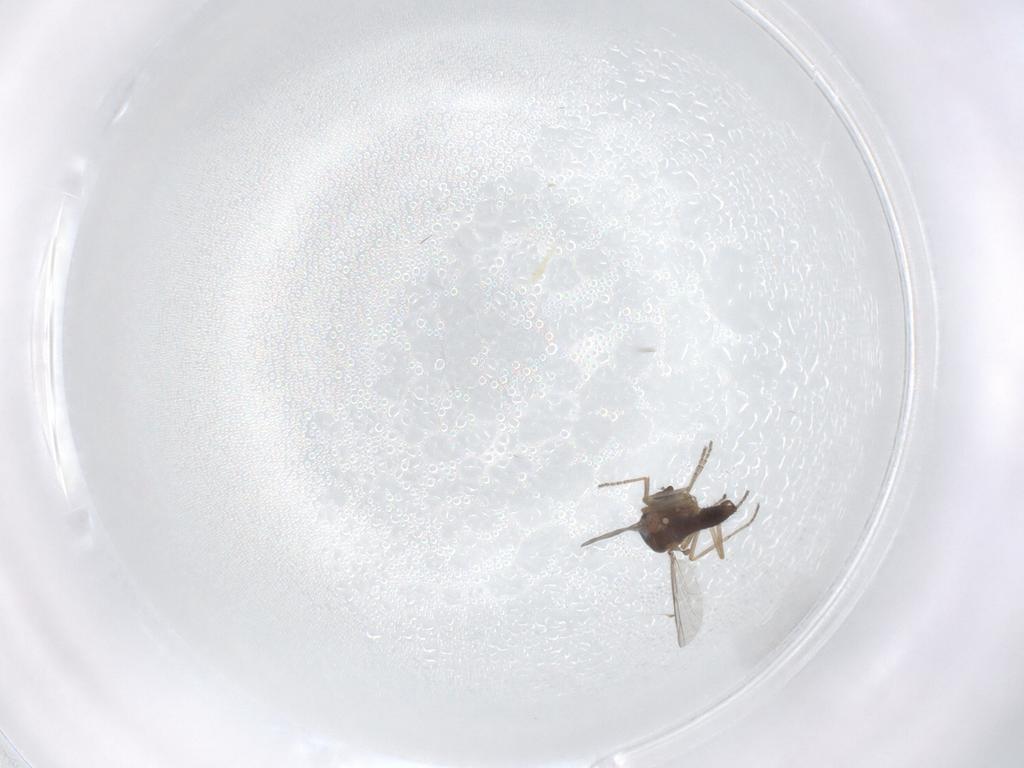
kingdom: Animalia
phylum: Arthropoda
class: Insecta
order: Diptera
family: Ceratopogonidae
